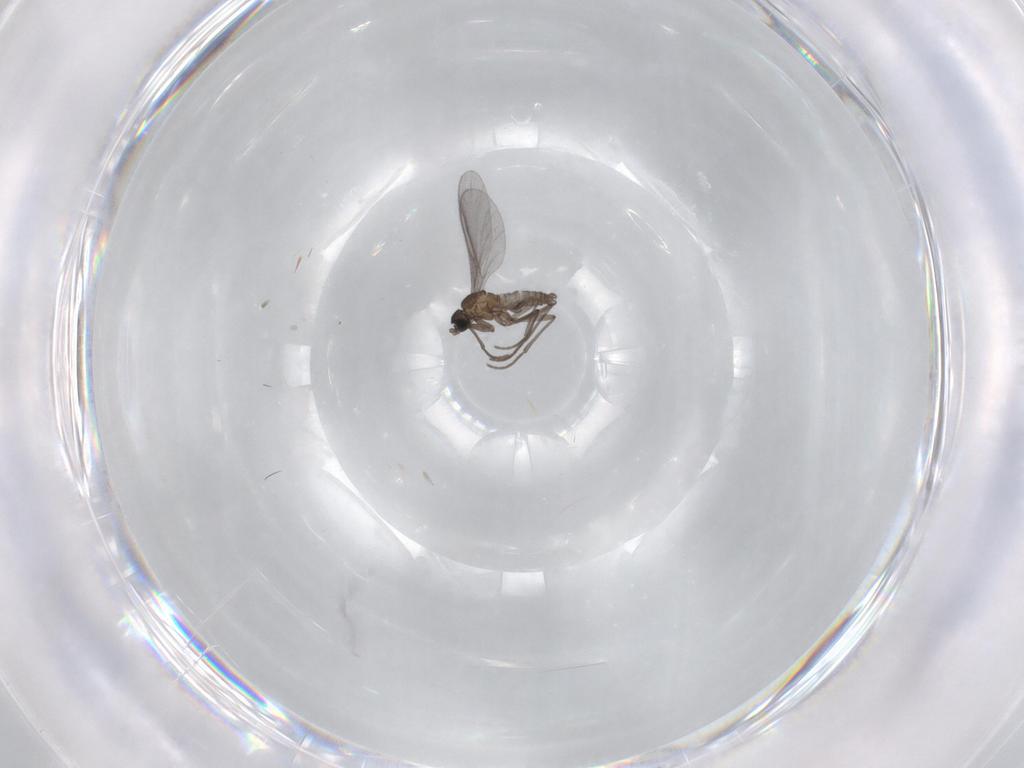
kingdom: Animalia
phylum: Arthropoda
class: Insecta
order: Diptera
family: Sciaridae
